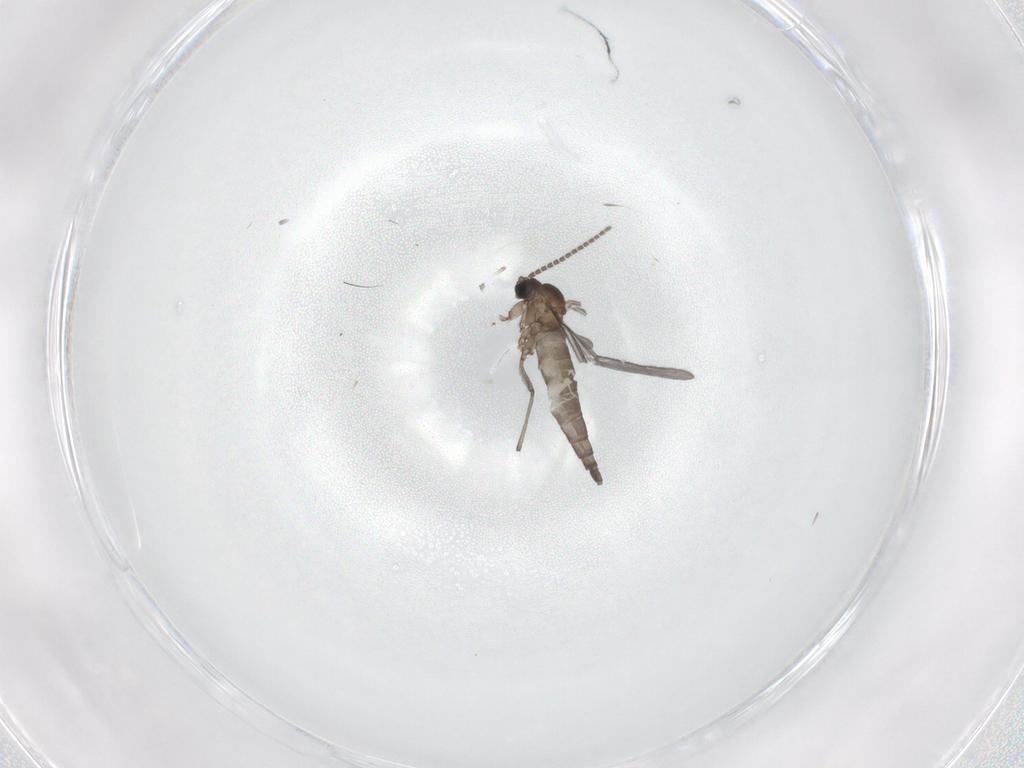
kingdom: Animalia
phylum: Arthropoda
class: Insecta
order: Diptera
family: Sciaridae
